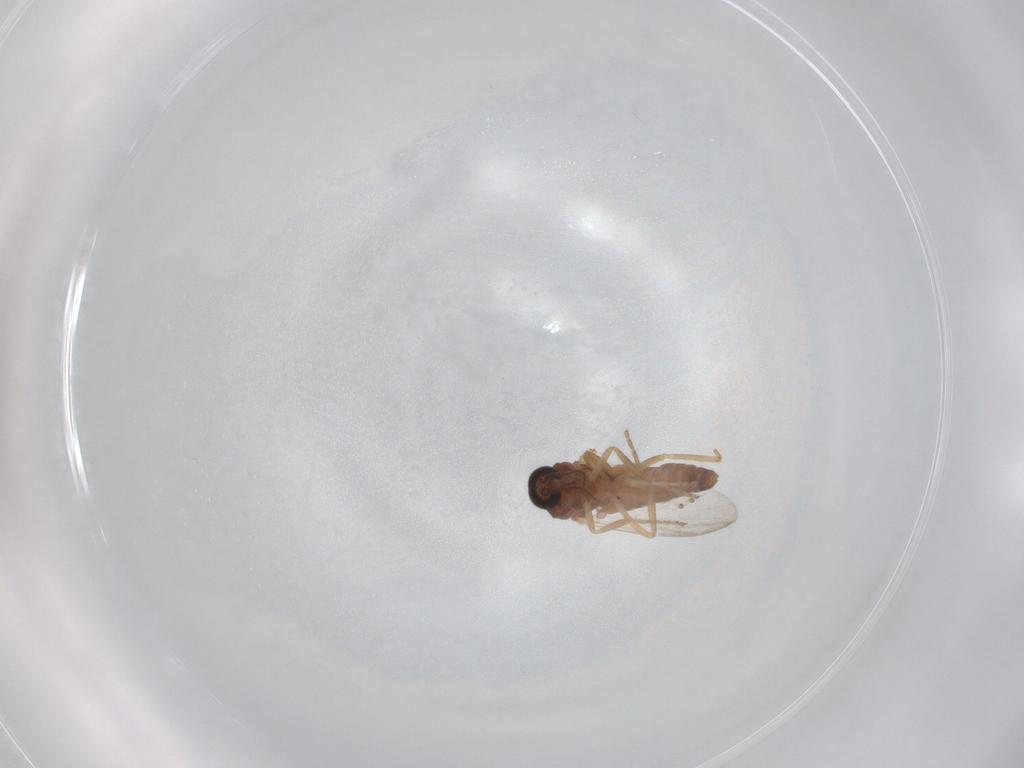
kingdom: Animalia
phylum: Arthropoda
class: Insecta
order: Diptera
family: Ceratopogonidae
